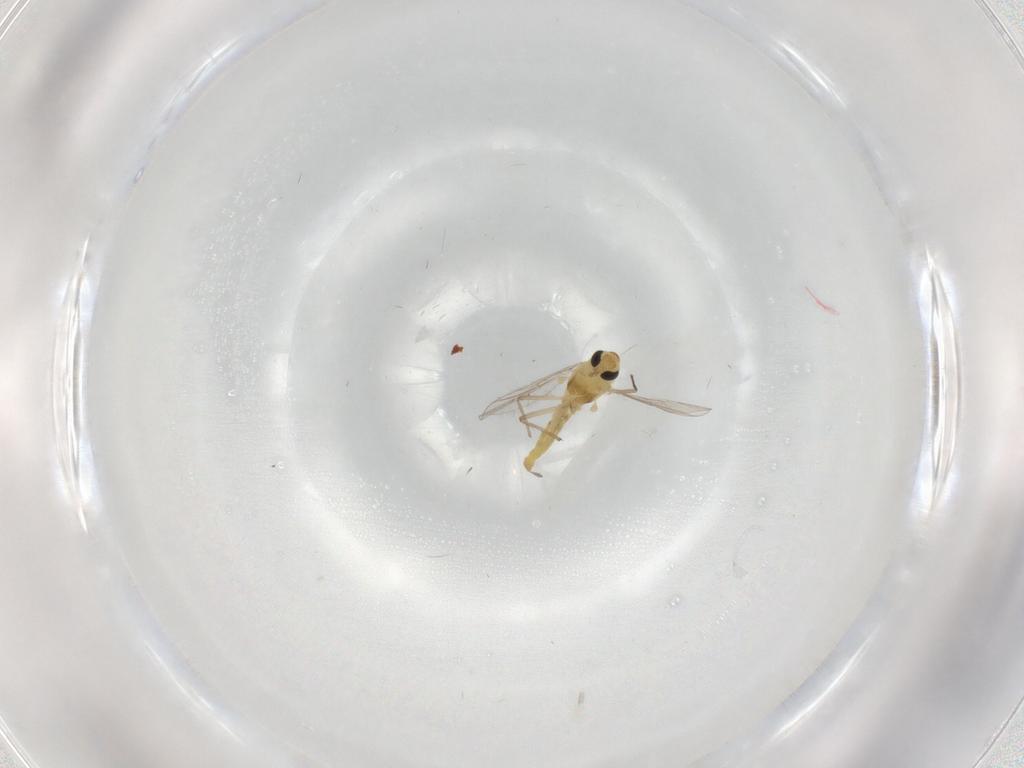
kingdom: Animalia
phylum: Arthropoda
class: Insecta
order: Diptera
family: Chironomidae
